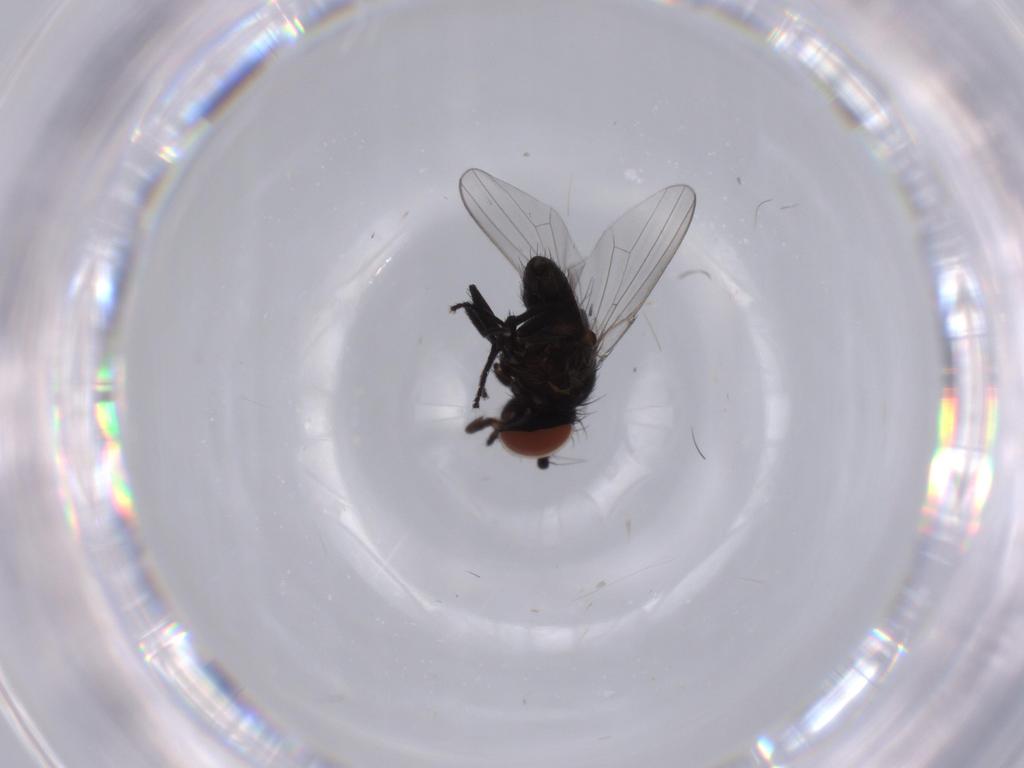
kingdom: Animalia
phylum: Arthropoda
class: Insecta
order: Diptera
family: Milichiidae
